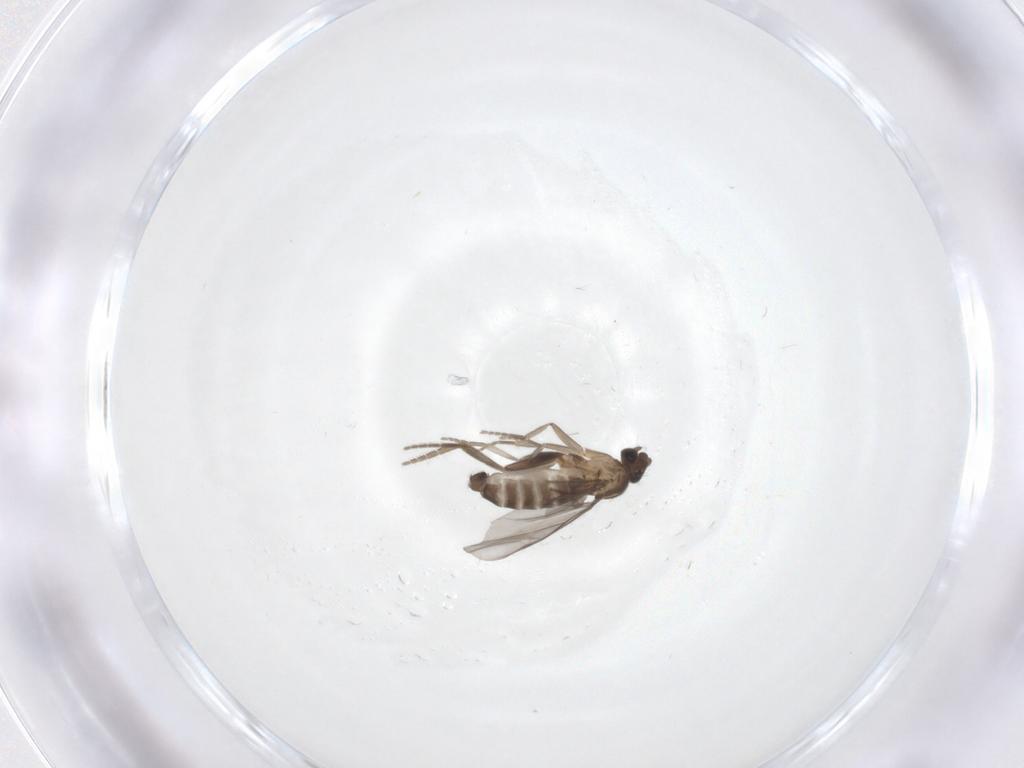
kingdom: Animalia
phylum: Arthropoda
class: Insecta
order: Diptera
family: Phoridae
